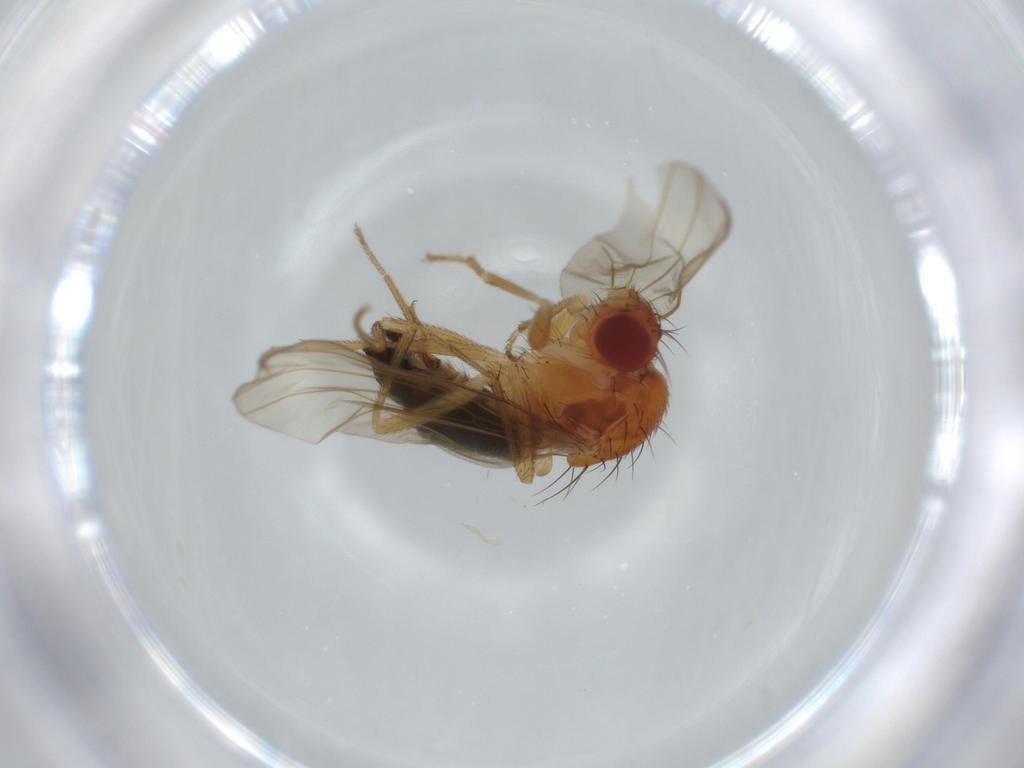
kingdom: Animalia
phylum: Arthropoda
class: Insecta
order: Diptera
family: Drosophilidae
